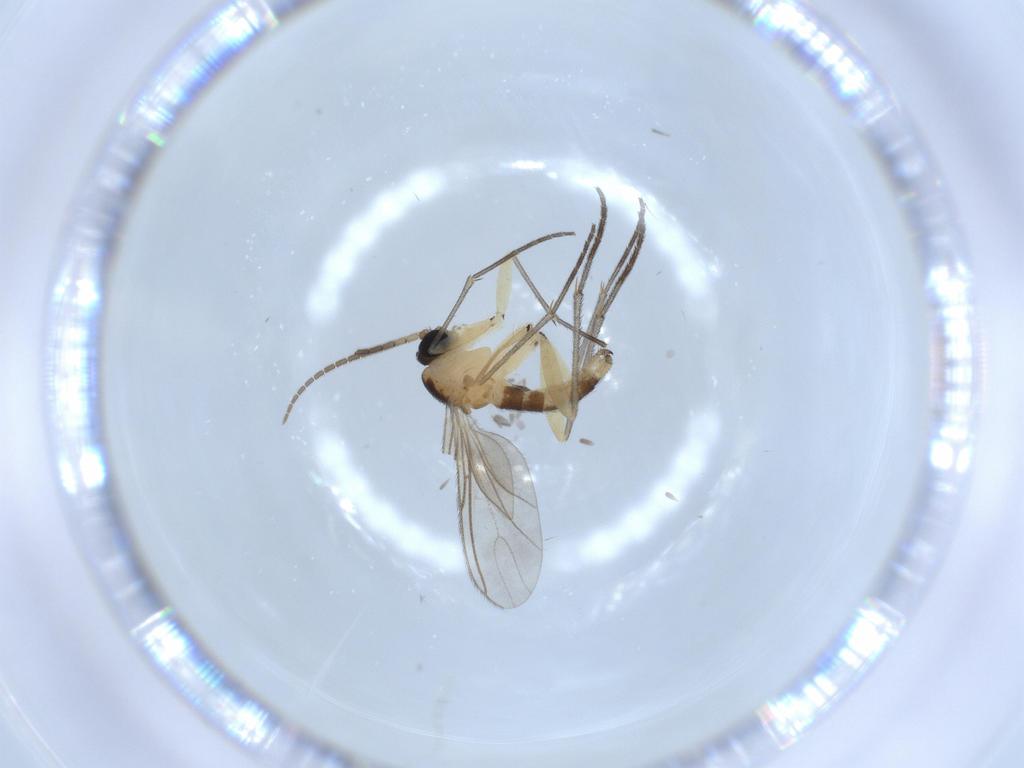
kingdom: Animalia
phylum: Arthropoda
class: Insecta
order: Diptera
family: Sciaridae
